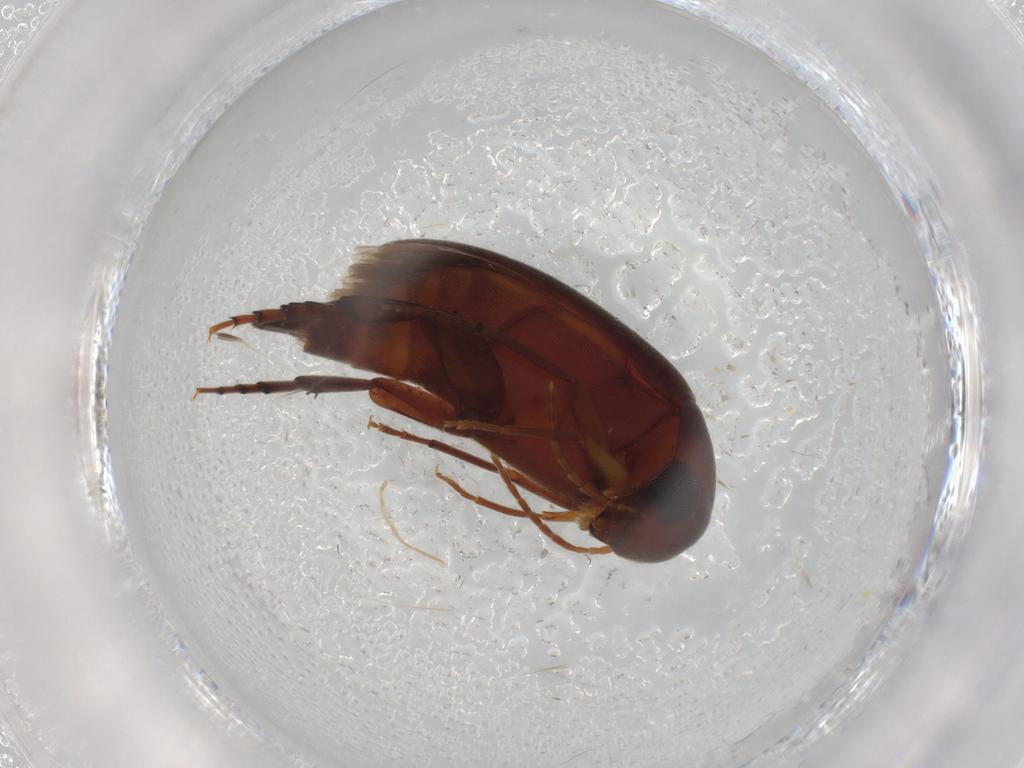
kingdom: Animalia
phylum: Arthropoda
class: Insecta
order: Coleoptera
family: Mordellidae
